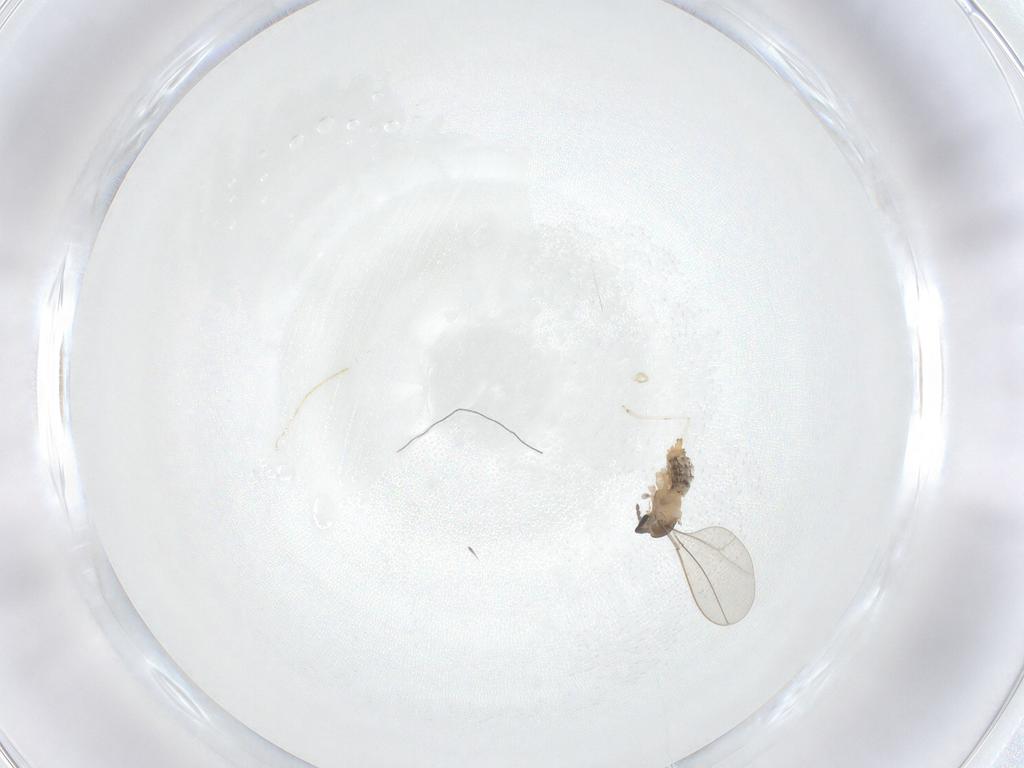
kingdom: Animalia
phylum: Arthropoda
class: Insecta
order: Diptera
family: Cecidomyiidae
